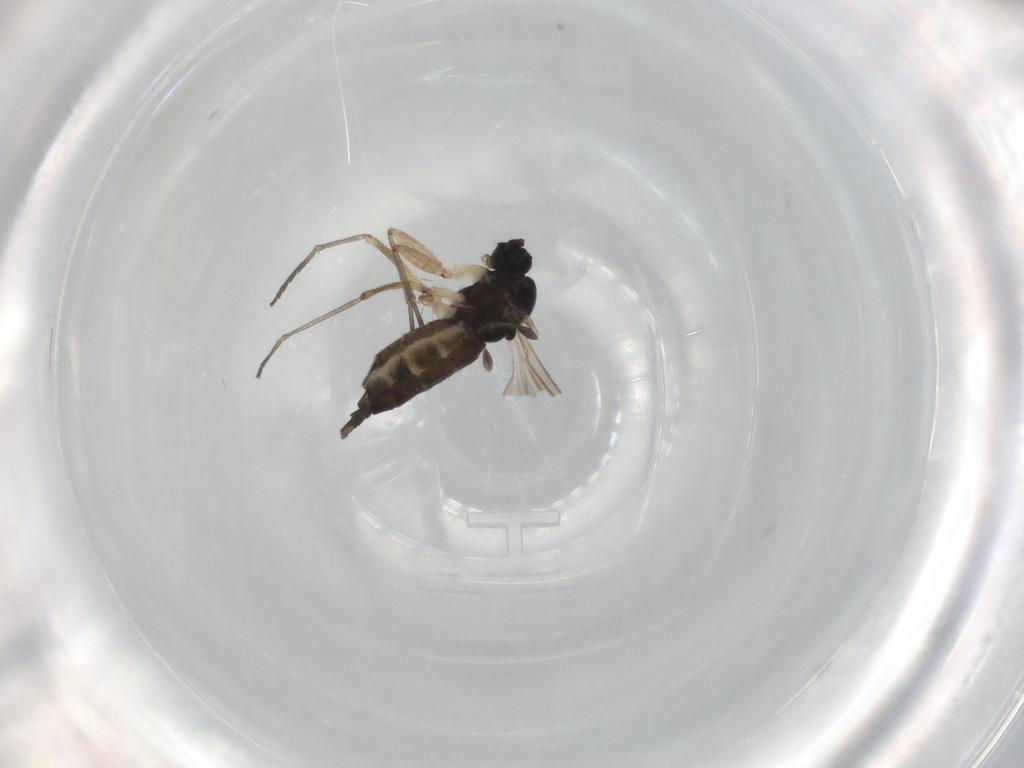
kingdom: Animalia
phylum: Arthropoda
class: Insecta
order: Diptera
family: Sciaridae
